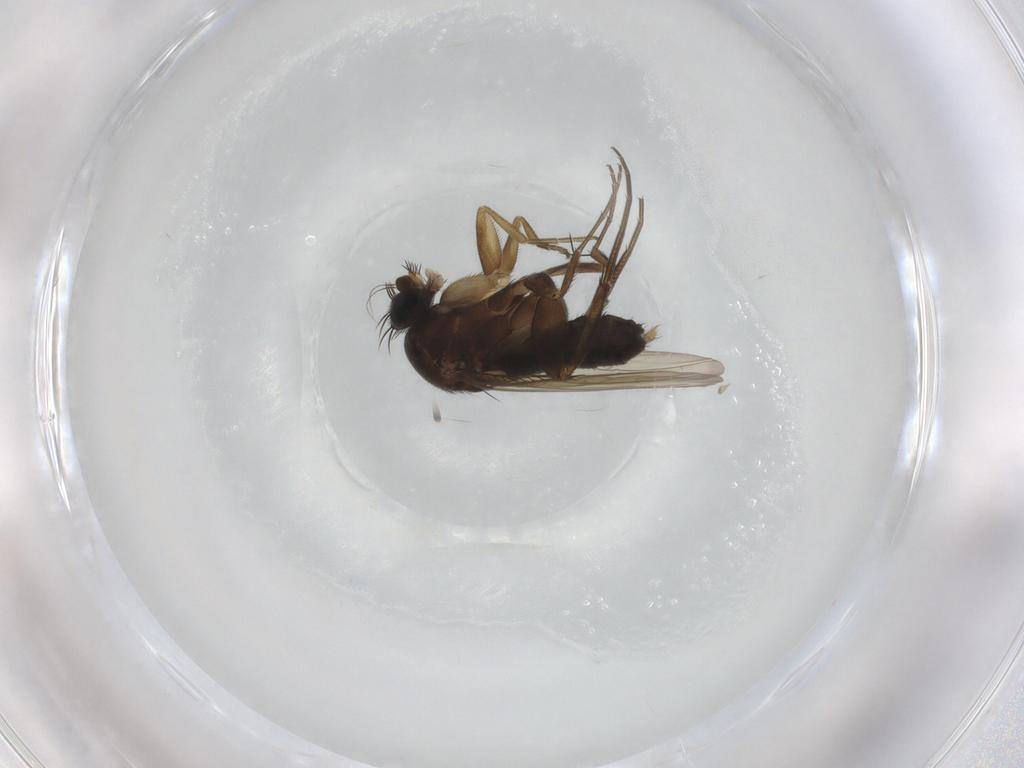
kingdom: Animalia
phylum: Arthropoda
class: Insecta
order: Diptera
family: Phoridae
